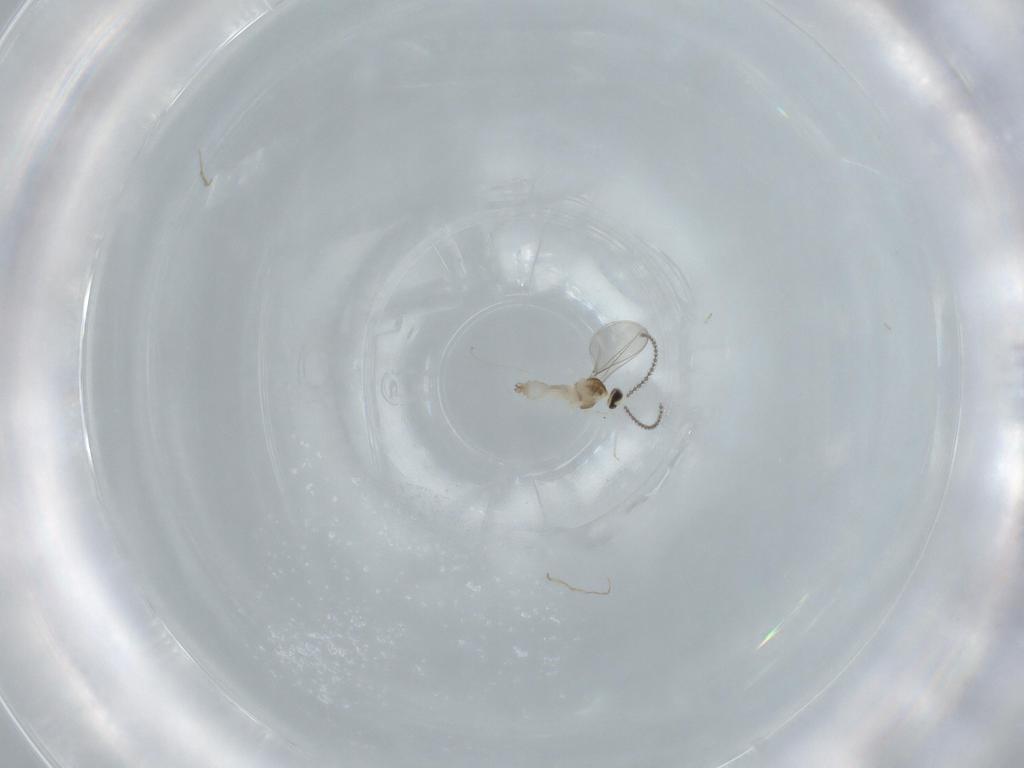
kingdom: Animalia
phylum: Arthropoda
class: Insecta
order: Diptera
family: Cecidomyiidae
